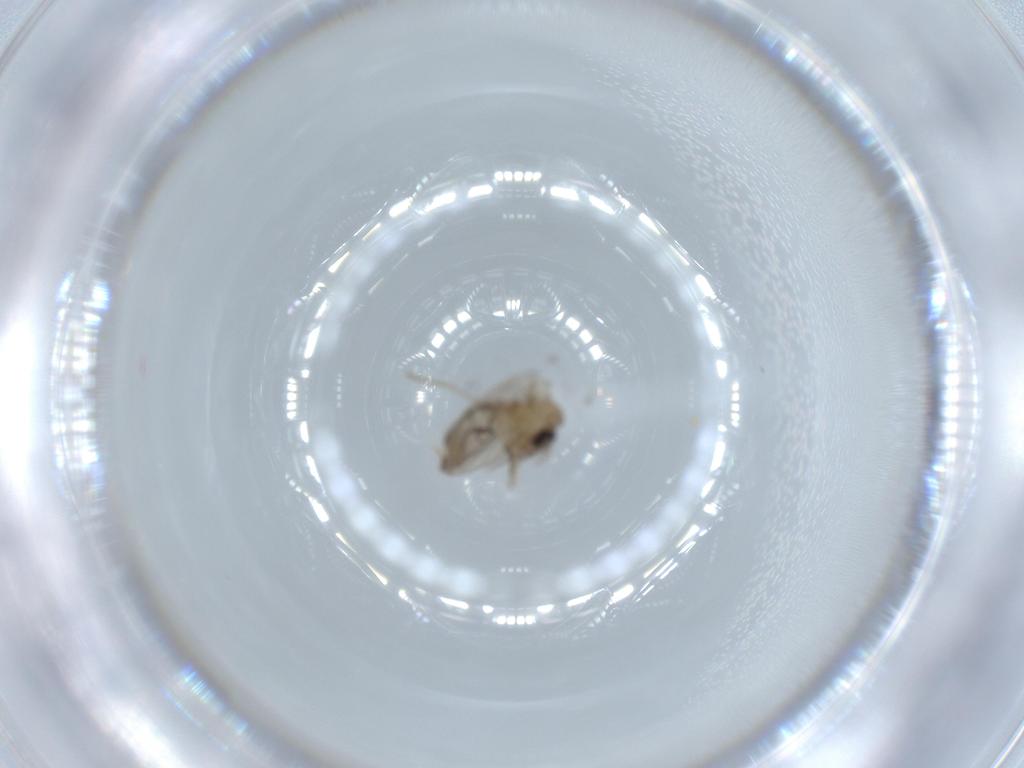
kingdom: Animalia
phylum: Arthropoda
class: Insecta
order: Diptera
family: Psychodidae
